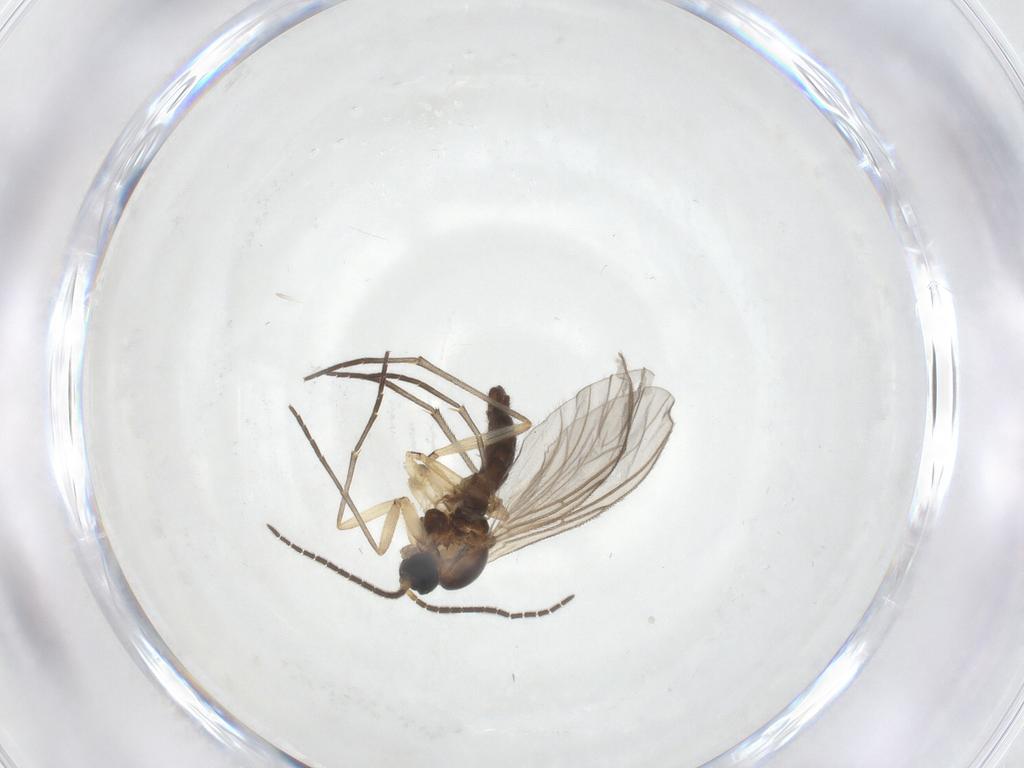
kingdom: Animalia
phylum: Arthropoda
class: Insecta
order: Diptera
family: Sciaridae
